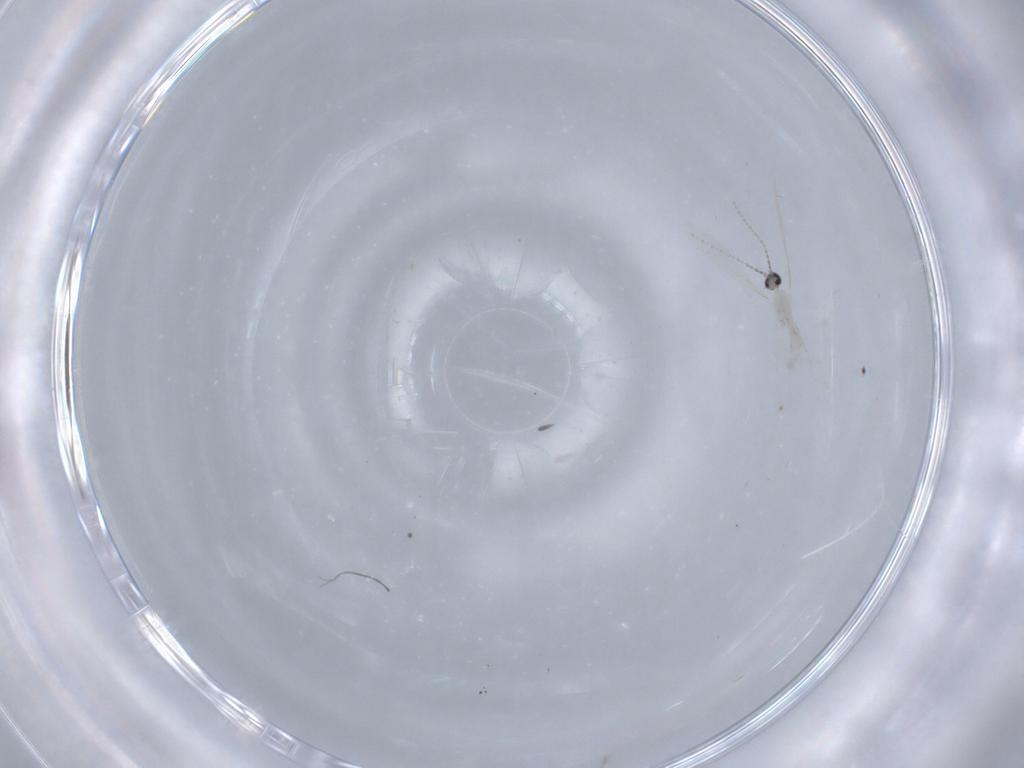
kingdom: Animalia
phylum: Arthropoda
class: Insecta
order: Diptera
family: Cecidomyiidae
